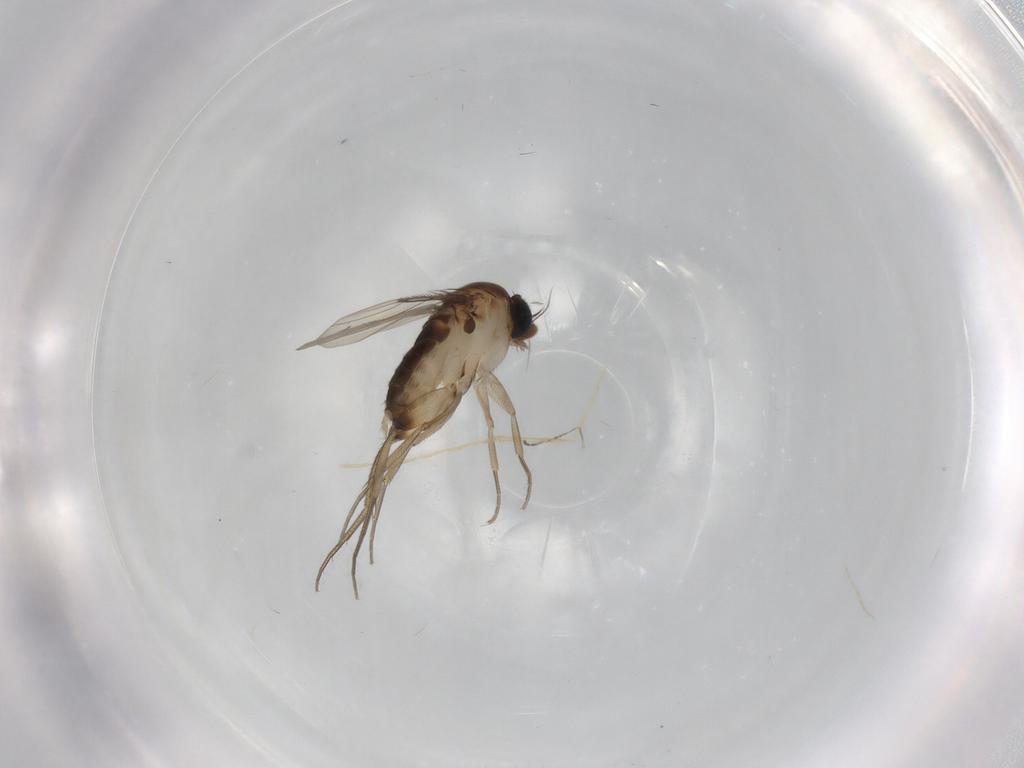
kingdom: Animalia
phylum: Arthropoda
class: Insecta
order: Diptera
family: Phoridae
